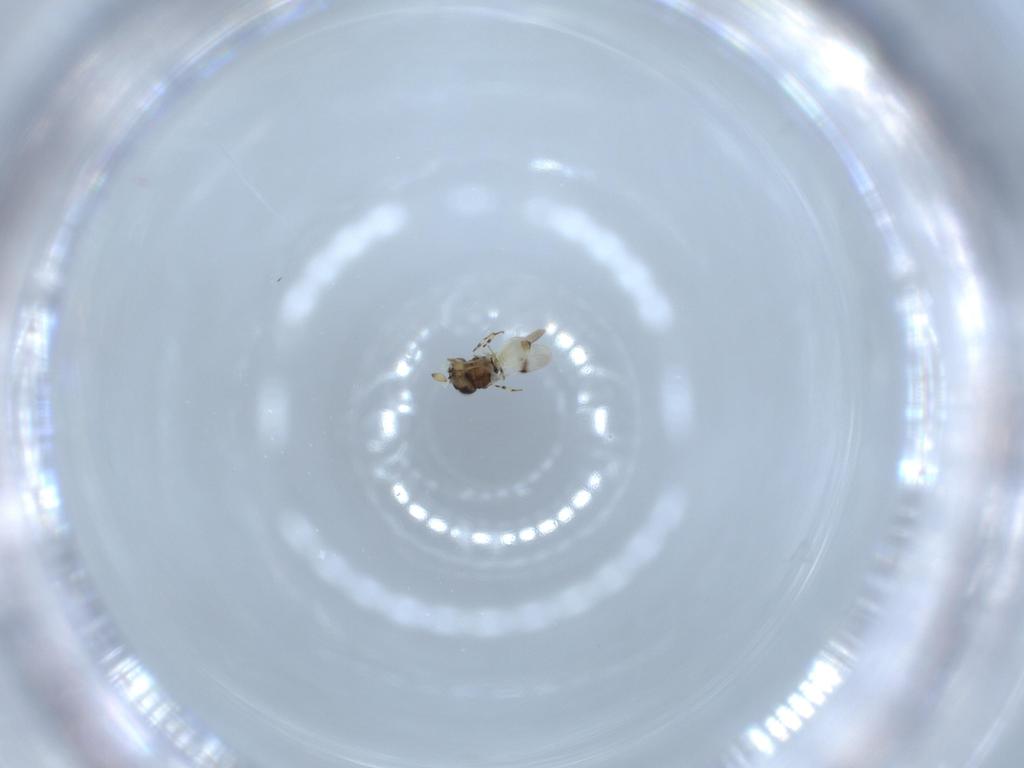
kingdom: Animalia
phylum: Arthropoda
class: Insecta
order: Hymenoptera
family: Scelionidae
